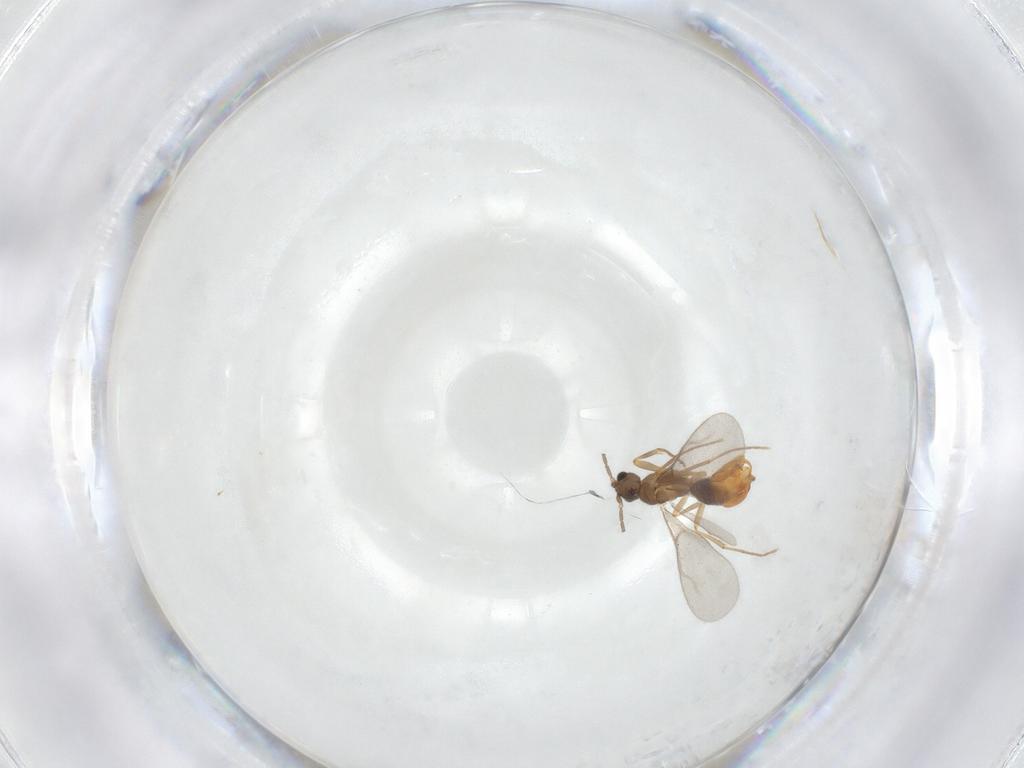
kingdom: Animalia
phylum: Arthropoda
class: Insecta
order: Hymenoptera
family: Formicidae
